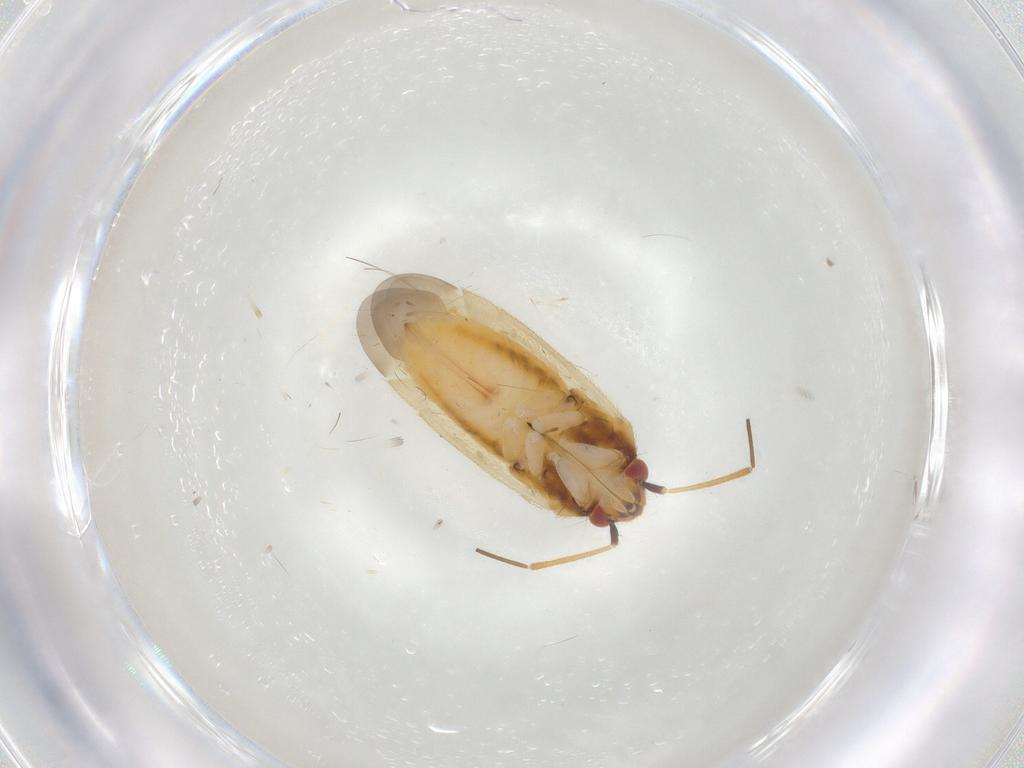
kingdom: Animalia
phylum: Arthropoda
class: Insecta
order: Hemiptera
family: Miridae
